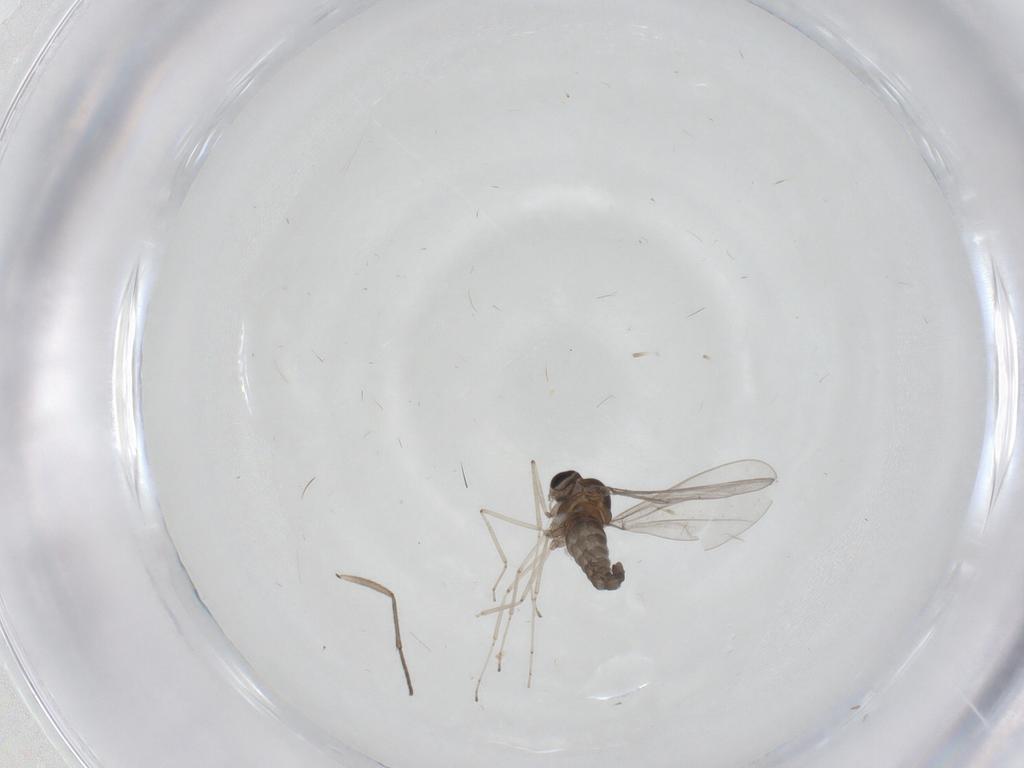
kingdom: Animalia
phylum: Arthropoda
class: Insecta
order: Diptera
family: Cecidomyiidae
